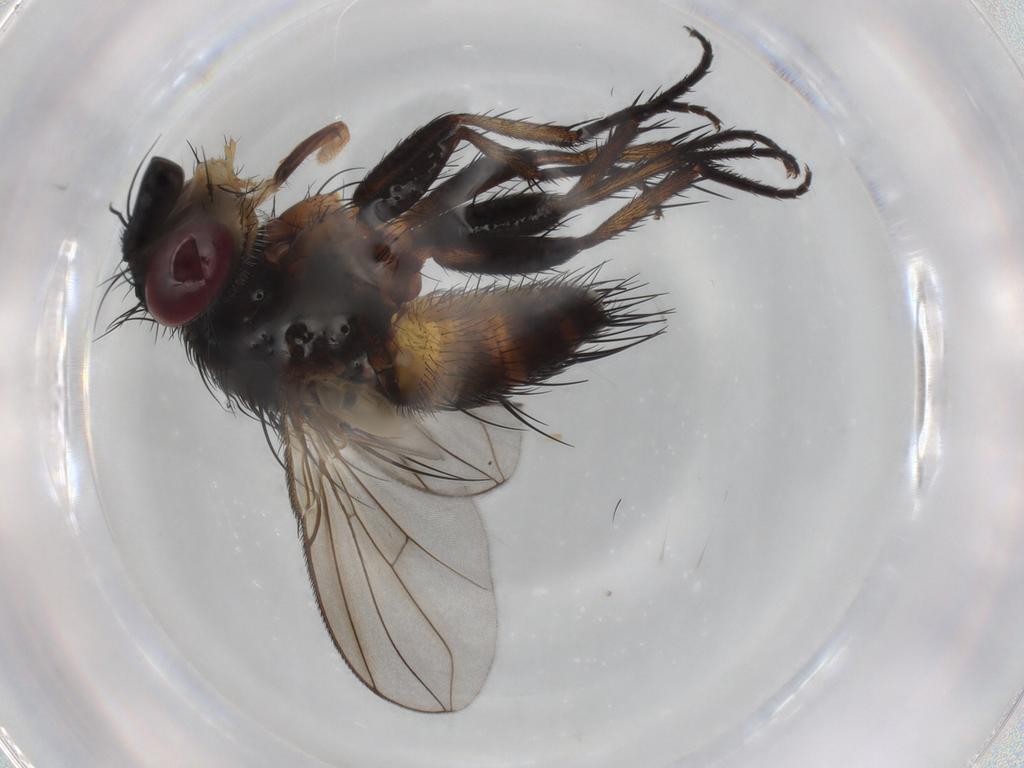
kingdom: Animalia
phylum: Arthropoda
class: Insecta
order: Diptera
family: Tachinidae
